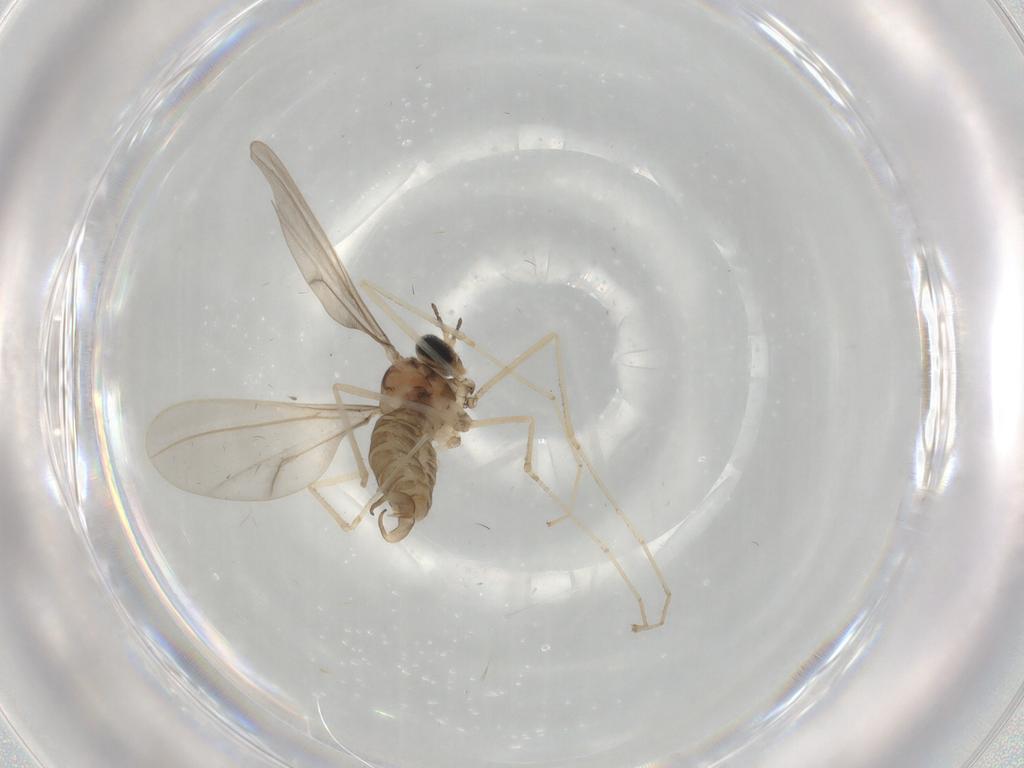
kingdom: Animalia
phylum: Arthropoda
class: Insecta
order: Diptera
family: Cecidomyiidae
